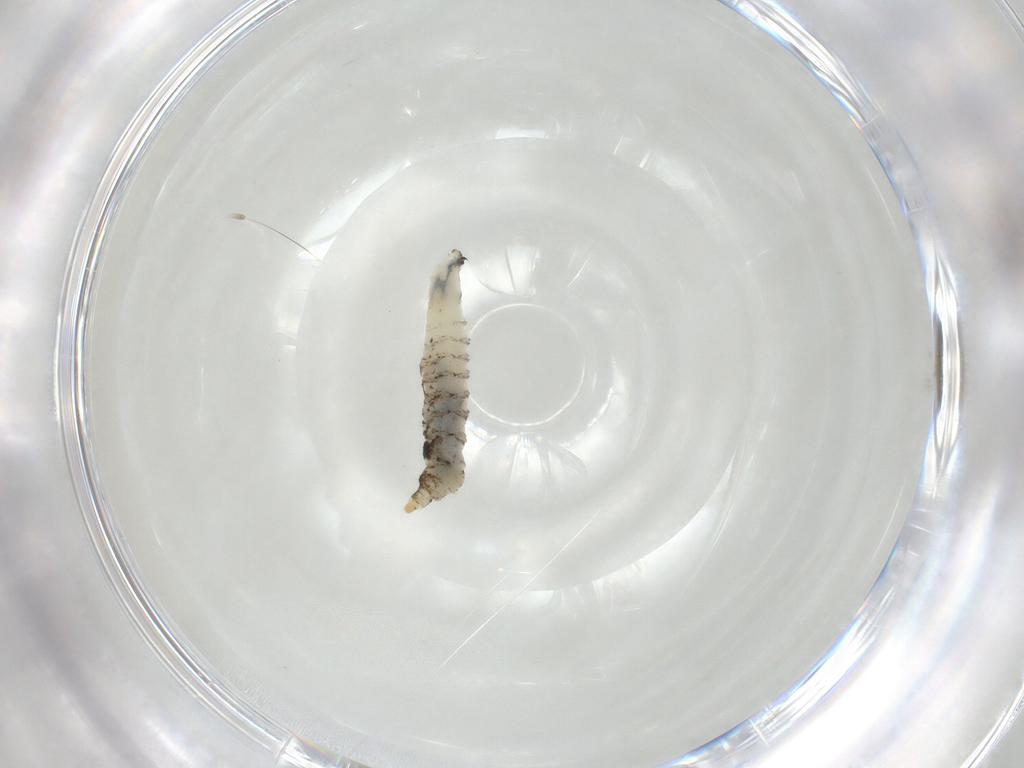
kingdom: Animalia
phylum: Arthropoda
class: Insecta
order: Diptera
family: Drosophilidae
